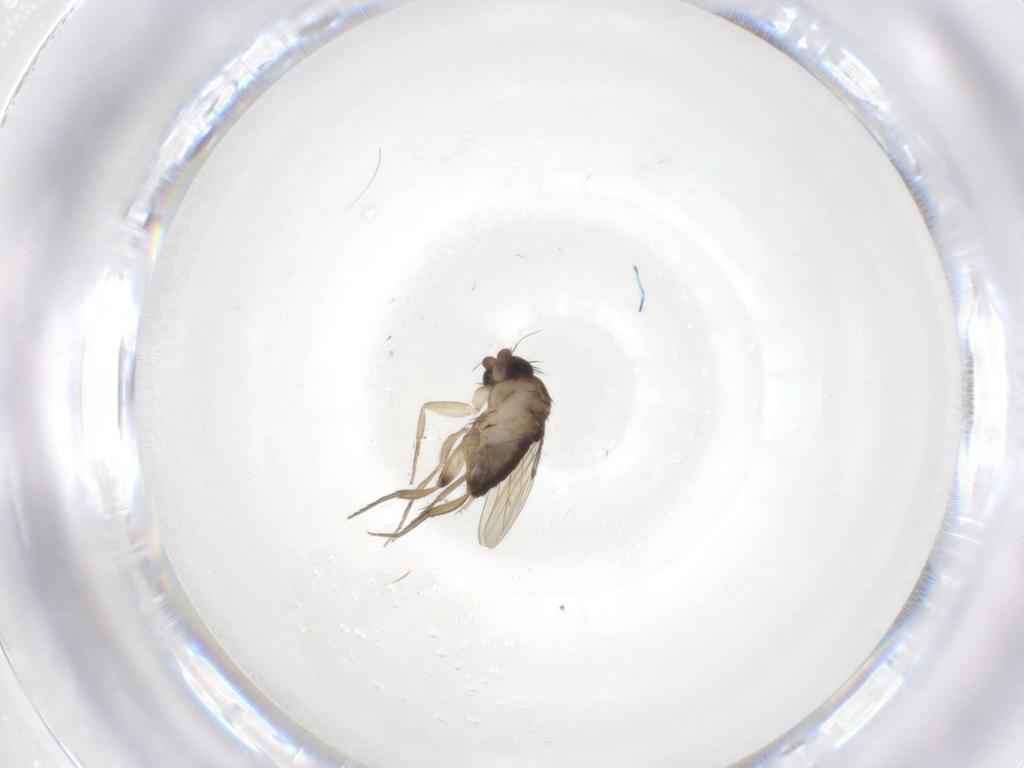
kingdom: Animalia
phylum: Arthropoda
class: Insecta
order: Diptera
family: Phoridae
